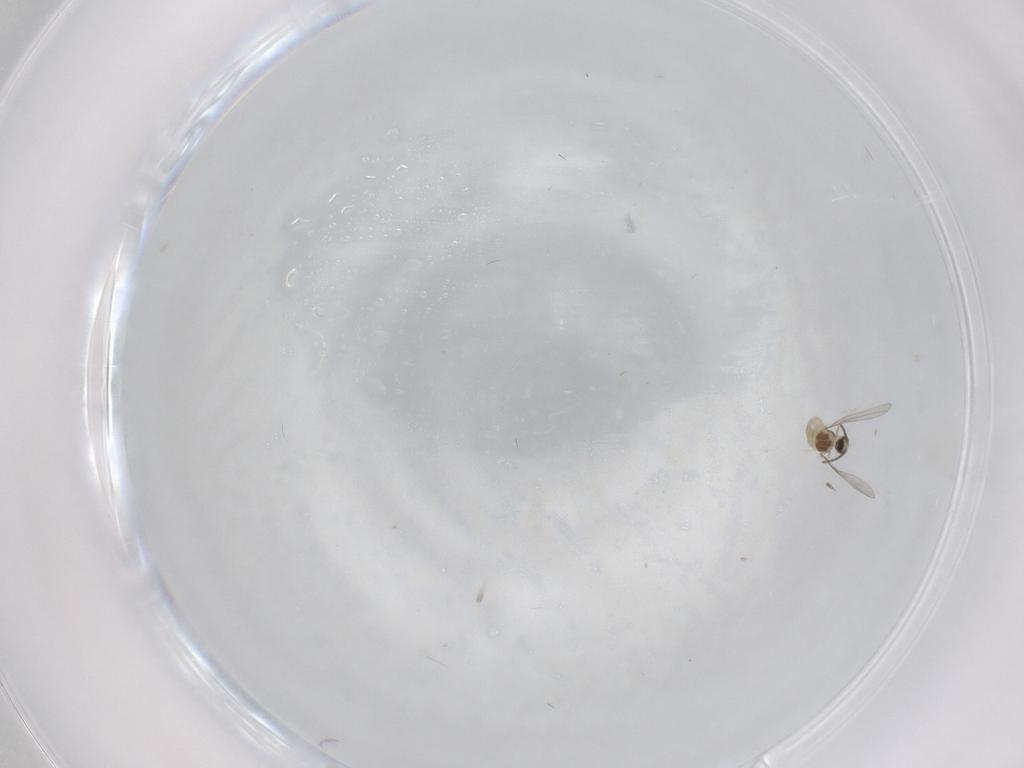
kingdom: Animalia
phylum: Arthropoda
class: Insecta
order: Diptera
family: Cecidomyiidae
